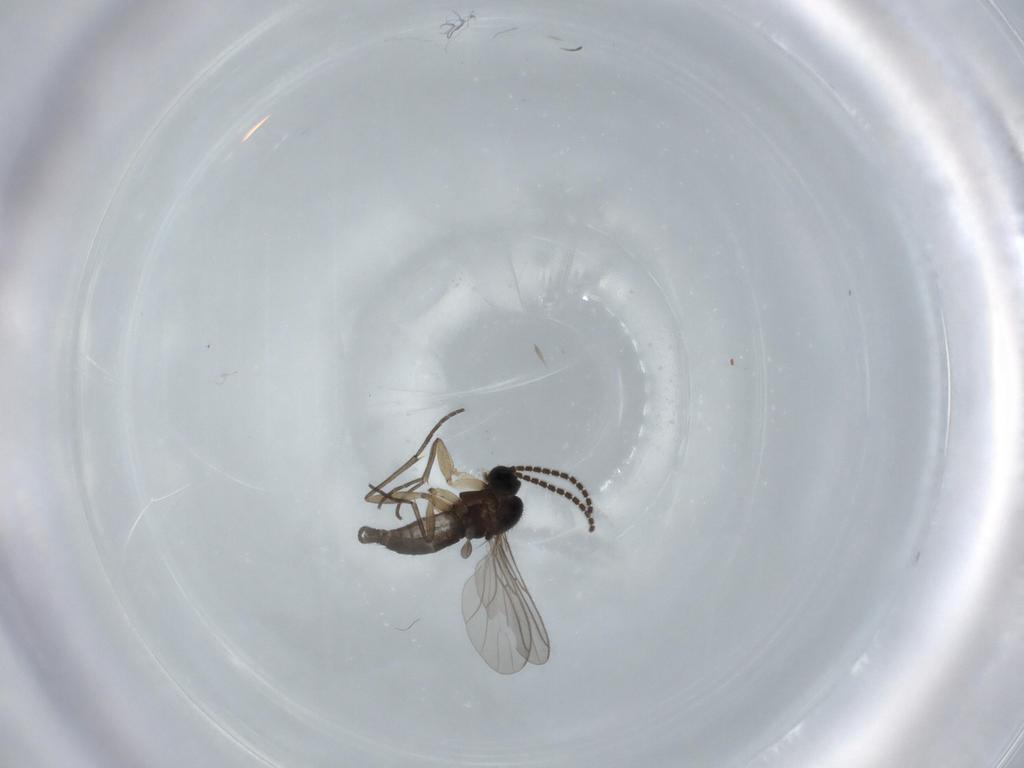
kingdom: Animalia
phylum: Arthropoda
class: Insecta
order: Diptera
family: Sciaridae
